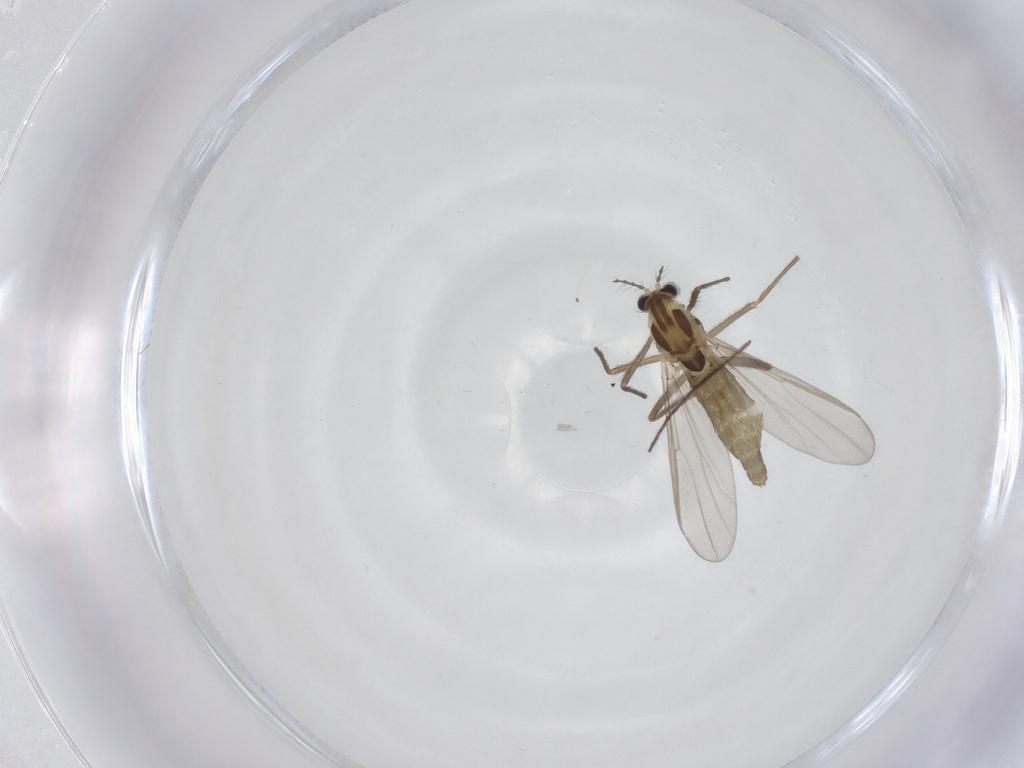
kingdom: Animalia
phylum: Arthropoda
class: Insecta
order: Diptera
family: Chironomidae
